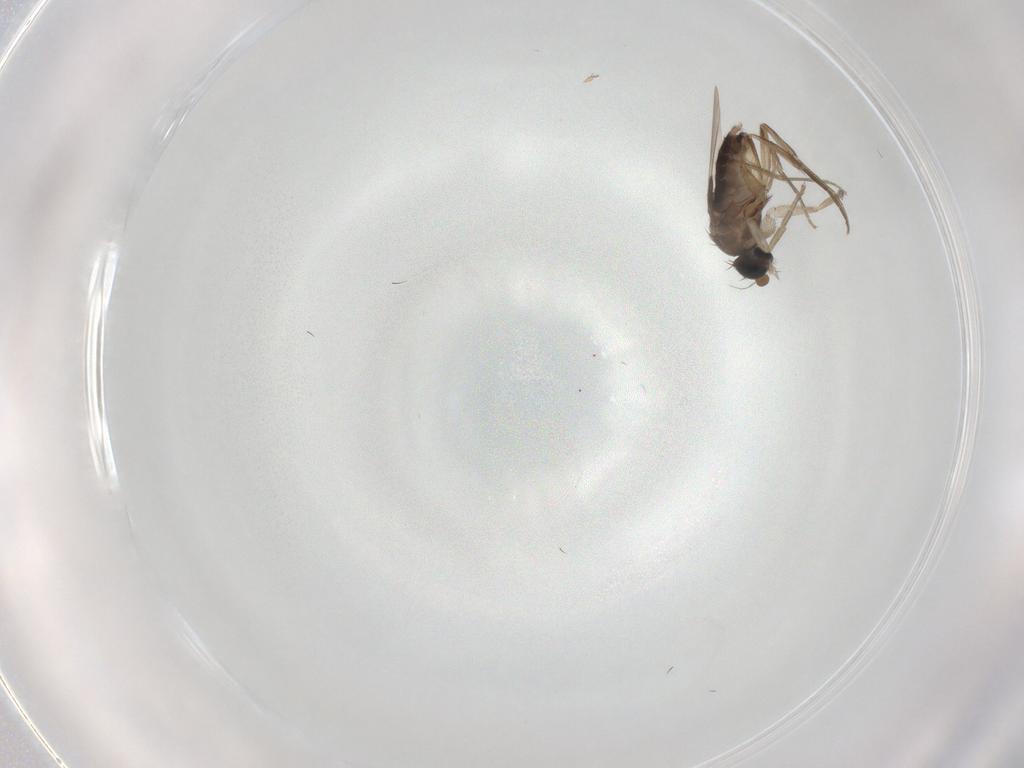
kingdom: Animalia
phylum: Arthropoda
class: Insecta
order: Diptera
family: Phoridae
